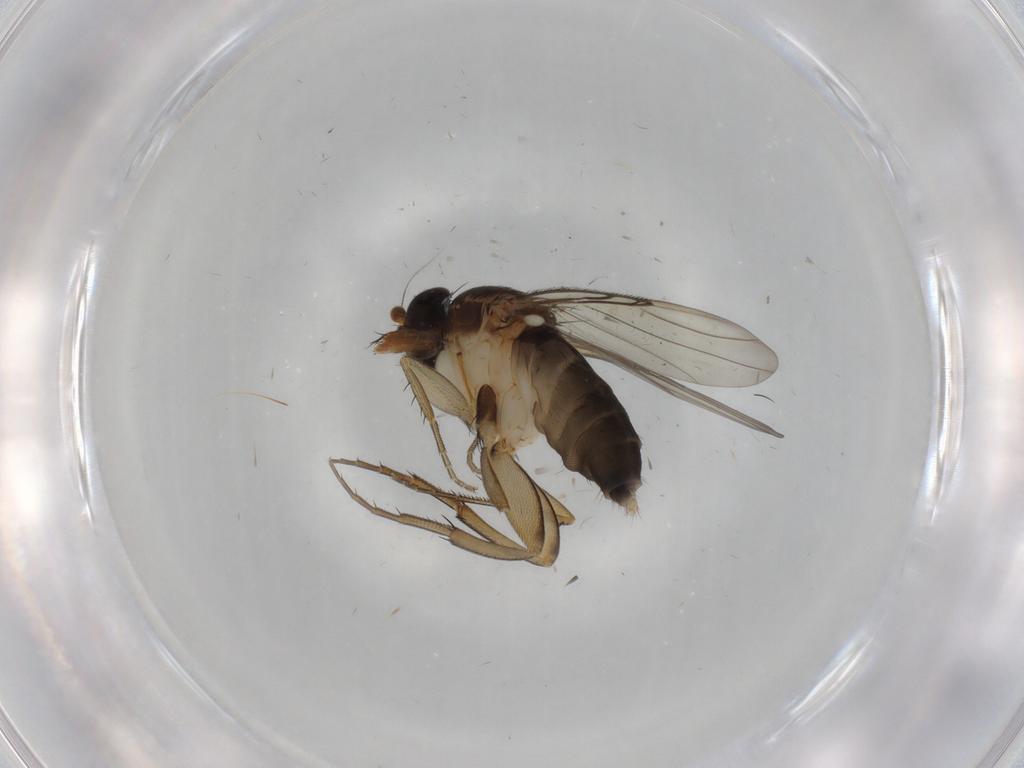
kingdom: Animalia
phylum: Arthropoda
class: Insecta
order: Diptera
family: Phoridae
